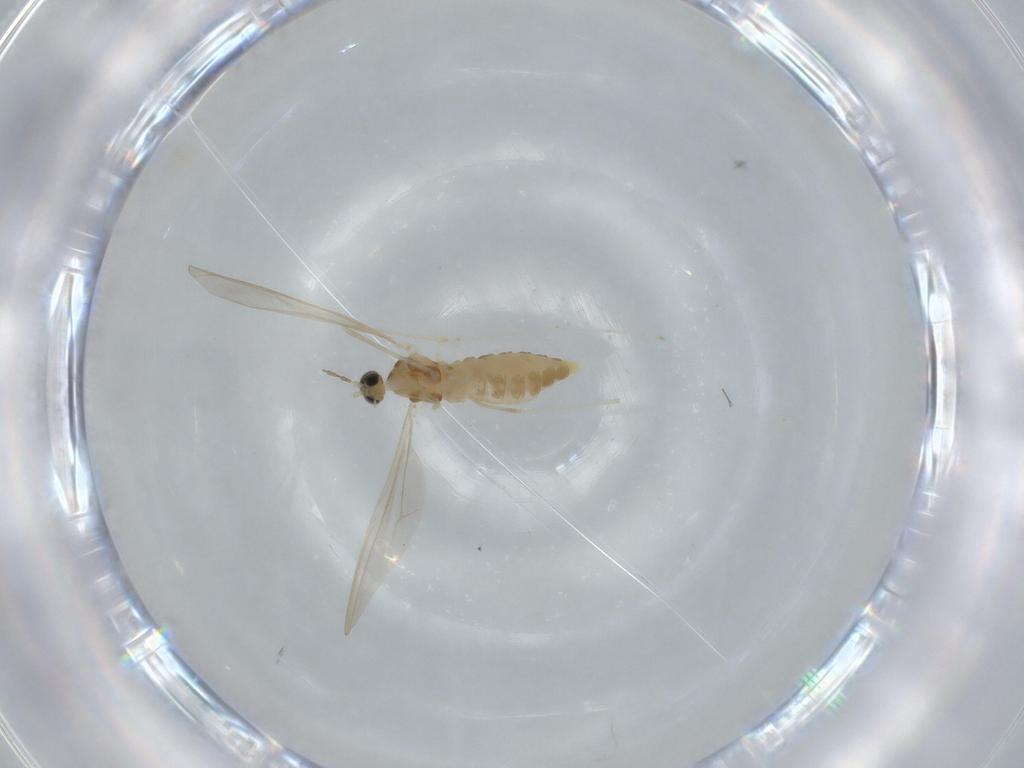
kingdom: Animalia
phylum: Arthropoda
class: Insecta
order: Diptera
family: Cecidomyiidae
